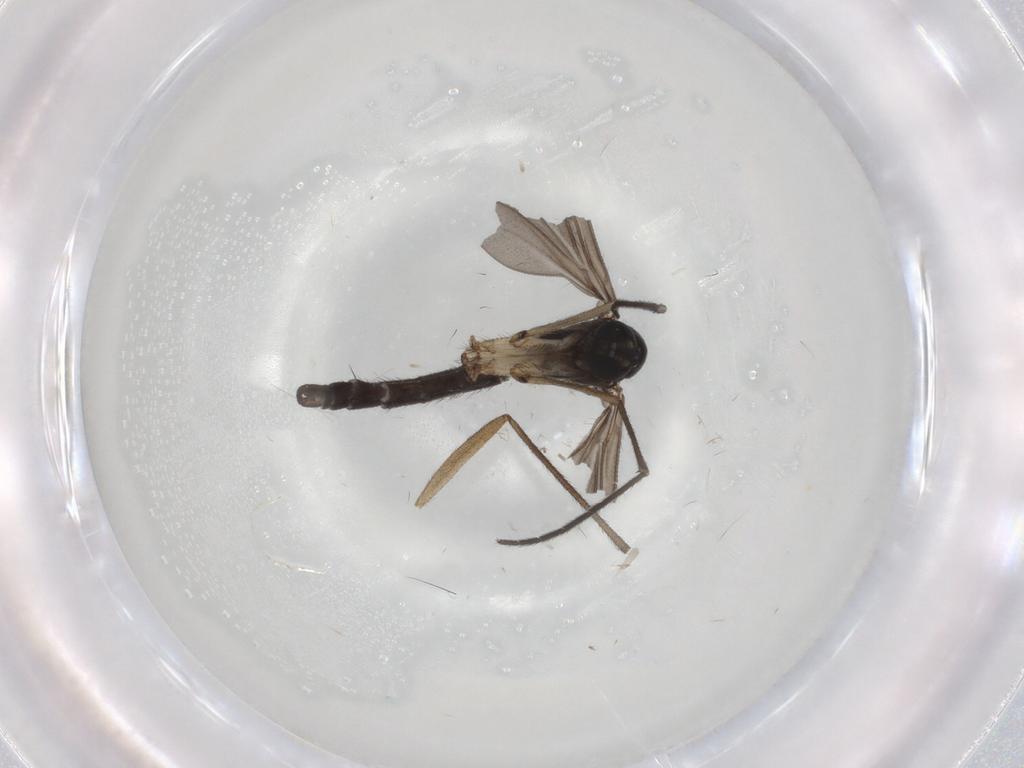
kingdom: Animalia
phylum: Arthropoda
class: Insecta
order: Diptera
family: Sciaridae
